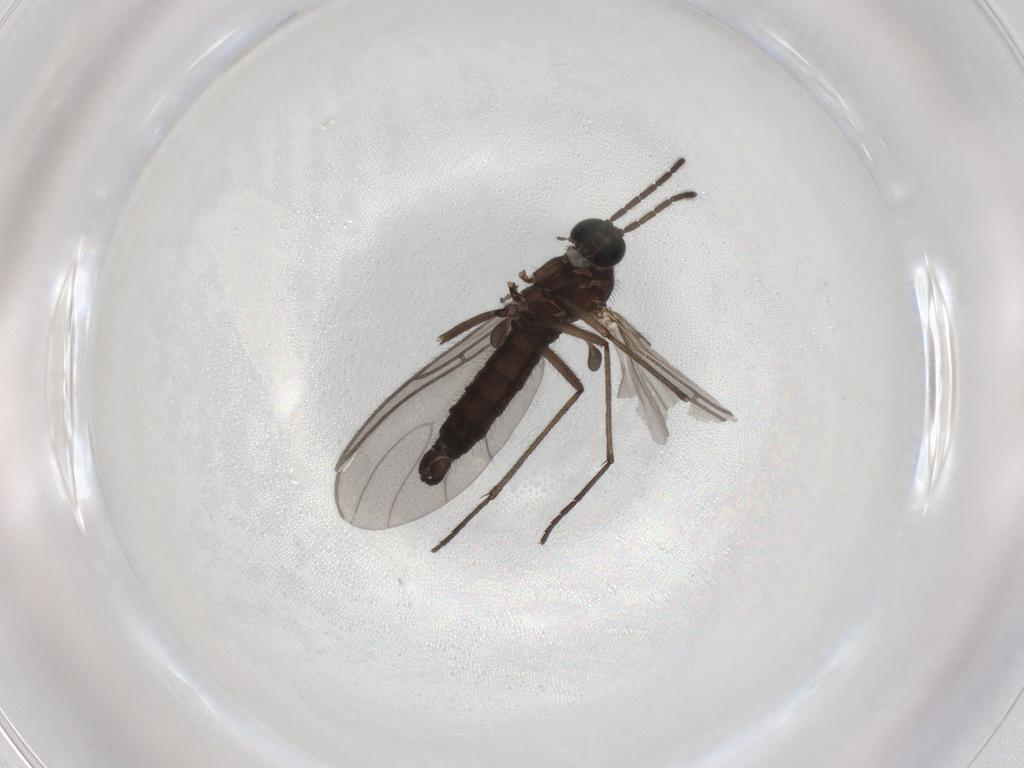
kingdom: Animalia
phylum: Arthropoda
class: Insecta
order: Diptera
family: Sciaridae
